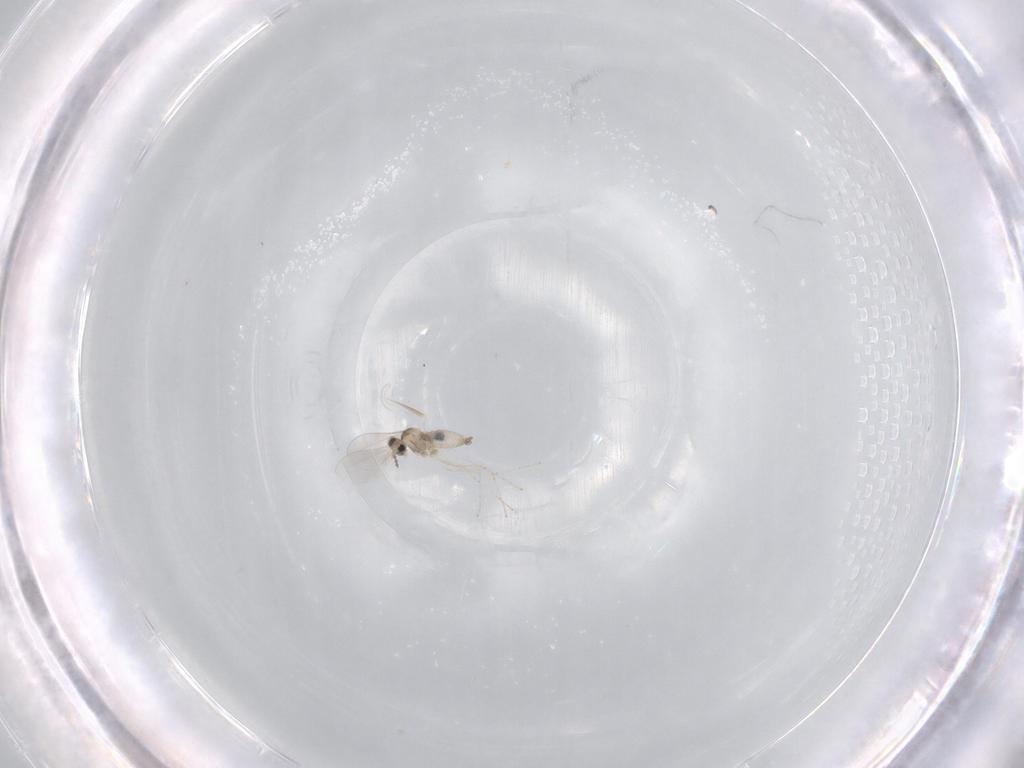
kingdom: Animalia
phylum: Arthropoda
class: Insecta
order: Diptera
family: Cecidomyiidae
